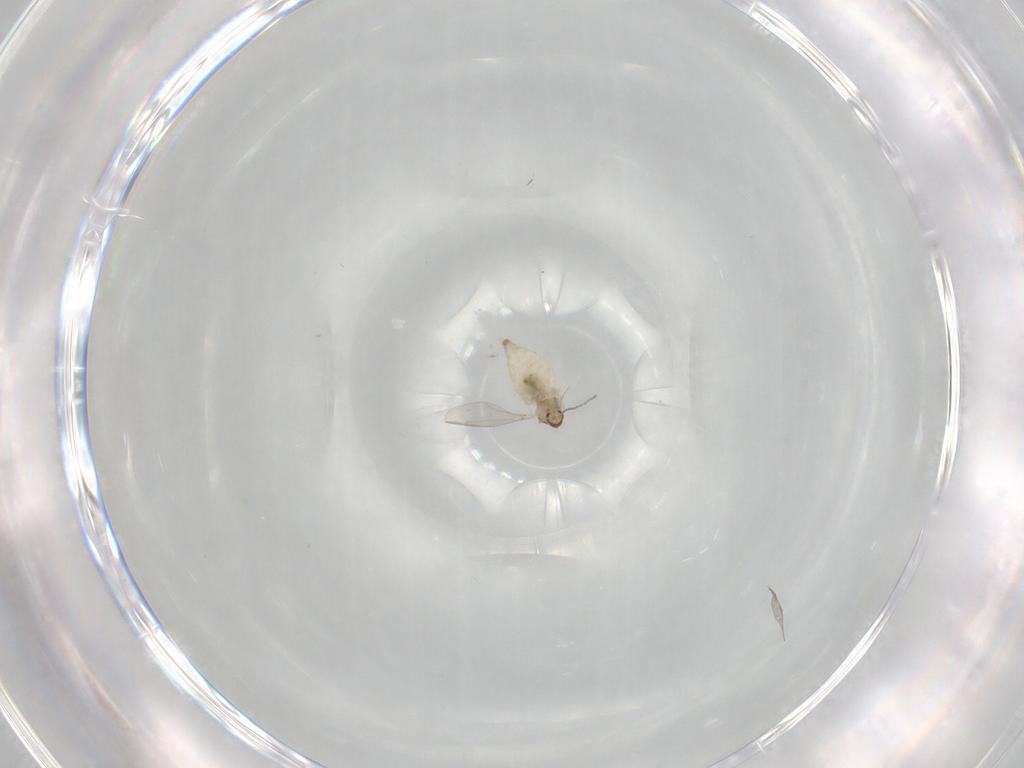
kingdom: Animalia
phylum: Arthropoda
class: Insecta
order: Diptera
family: Cecidomyiidae
